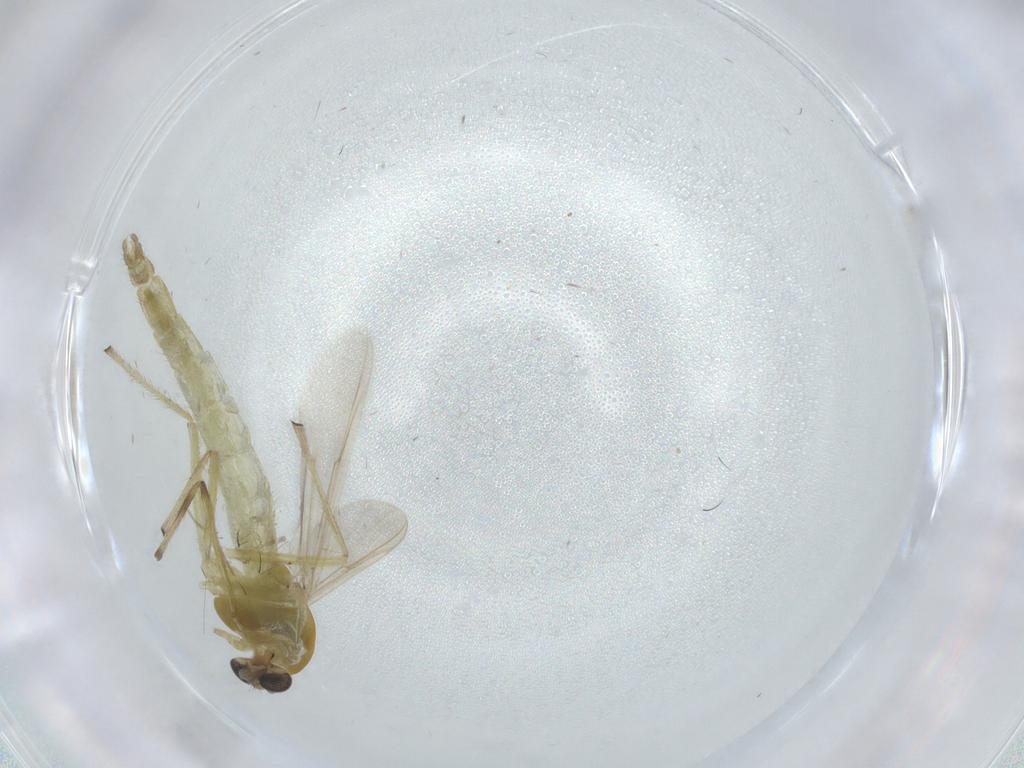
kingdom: Animalia
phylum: Arthropoda
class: Insecta
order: Diptera
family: Chironomidae
